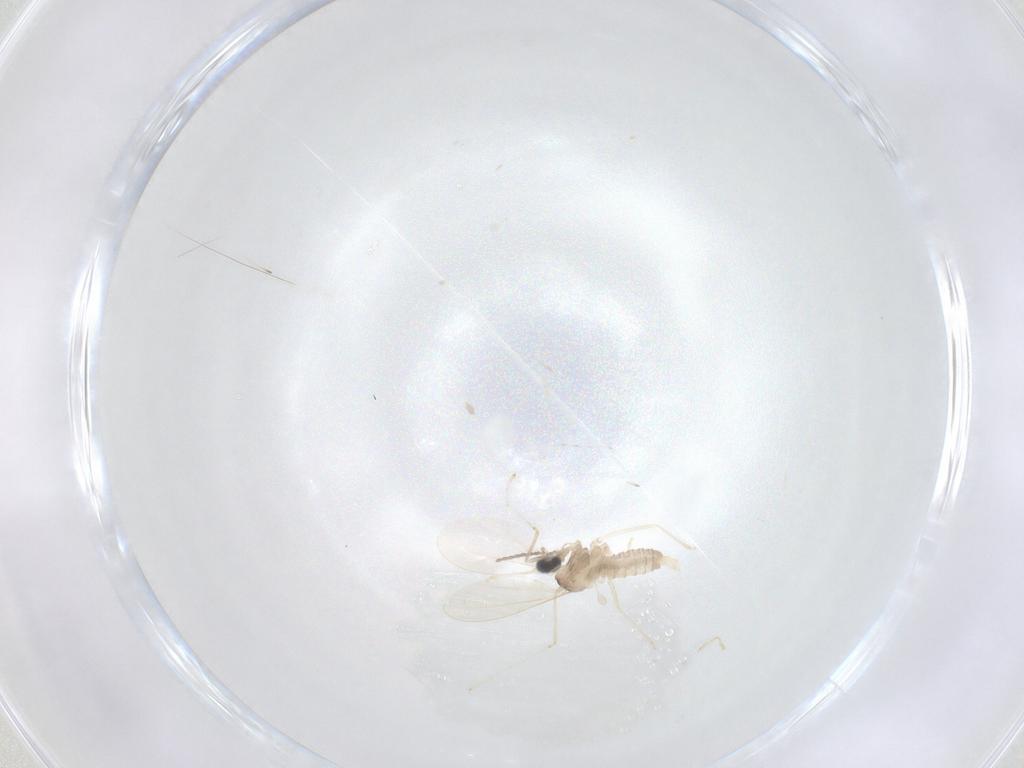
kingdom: Animalia
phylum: Arthropoda
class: Insecta
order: Diptera
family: Cecidomyiidae
